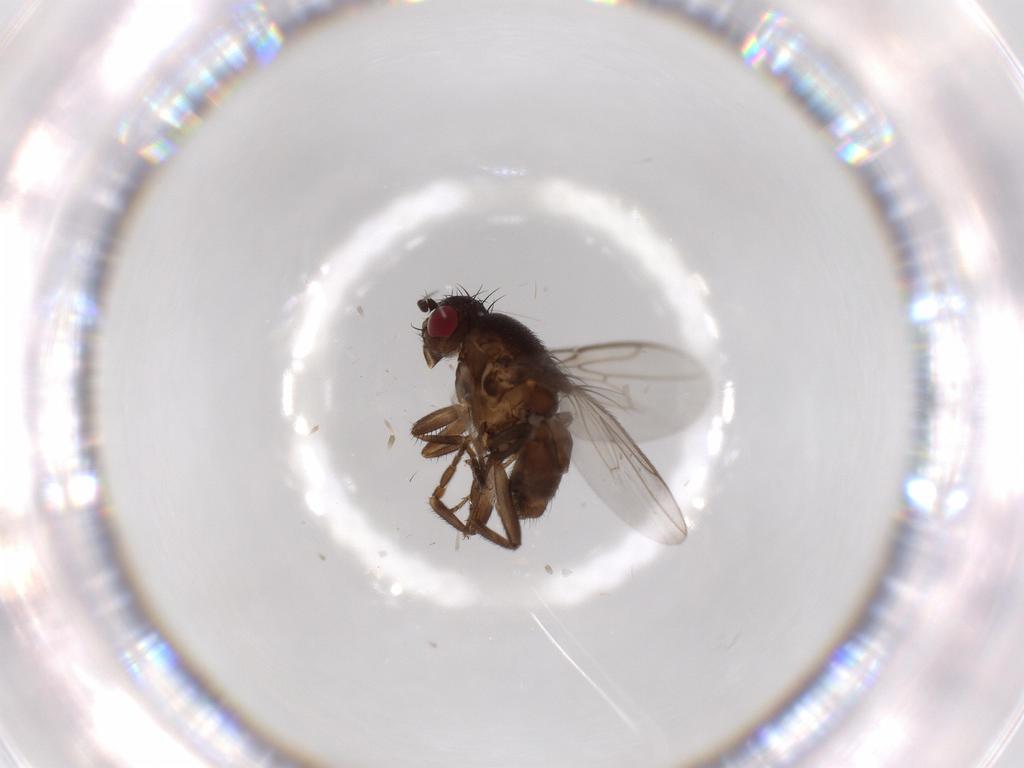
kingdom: Animalia
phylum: Arthropoda
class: Insecta
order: Diptera
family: Sphaeroceridae
